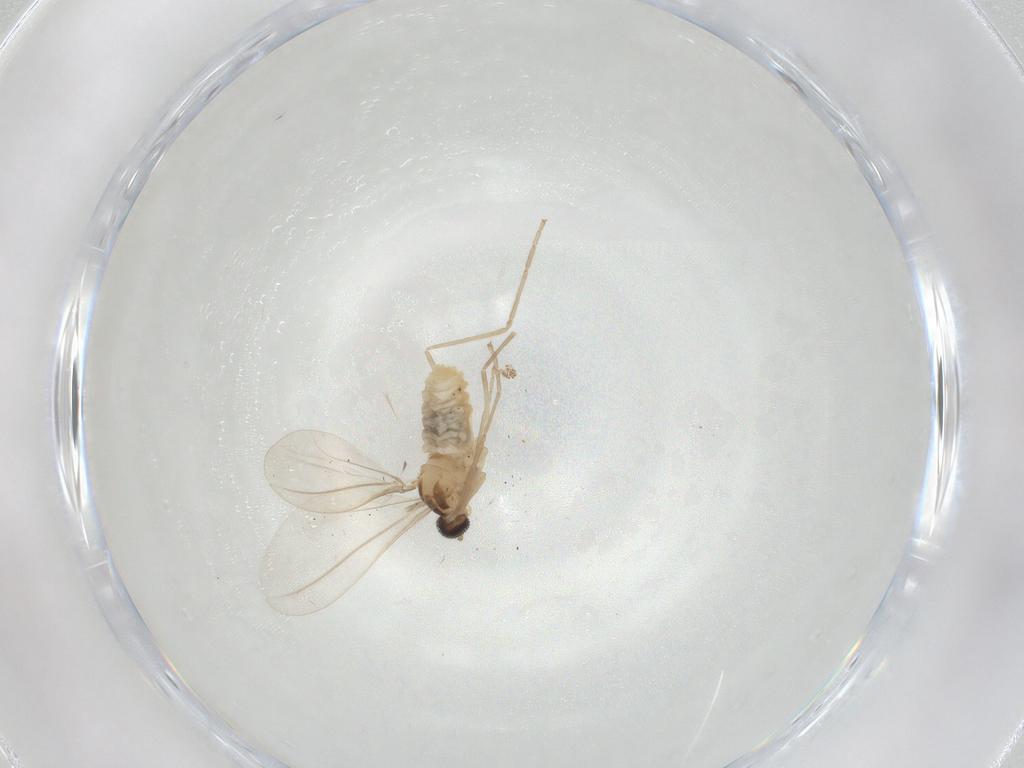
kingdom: Animalia
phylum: Arthropoda
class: Insecta
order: Diptera
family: Cecidomyiidae
